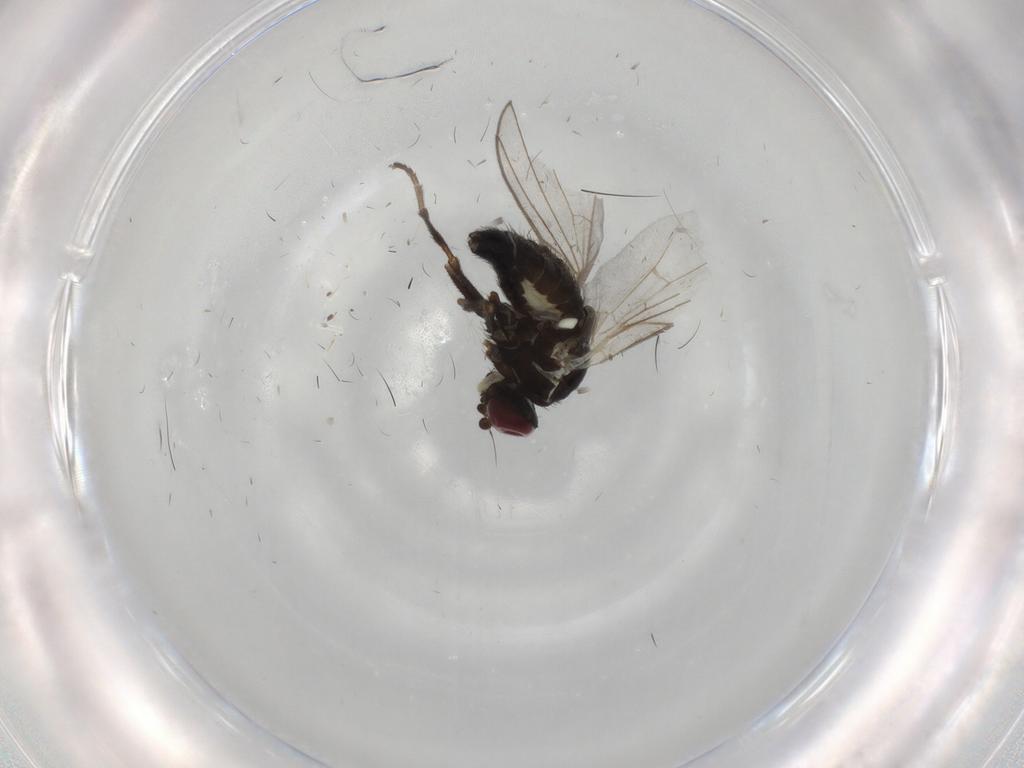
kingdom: Animalia
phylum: Arthropoda
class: Insecta
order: Diptera
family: Agromyzidae
